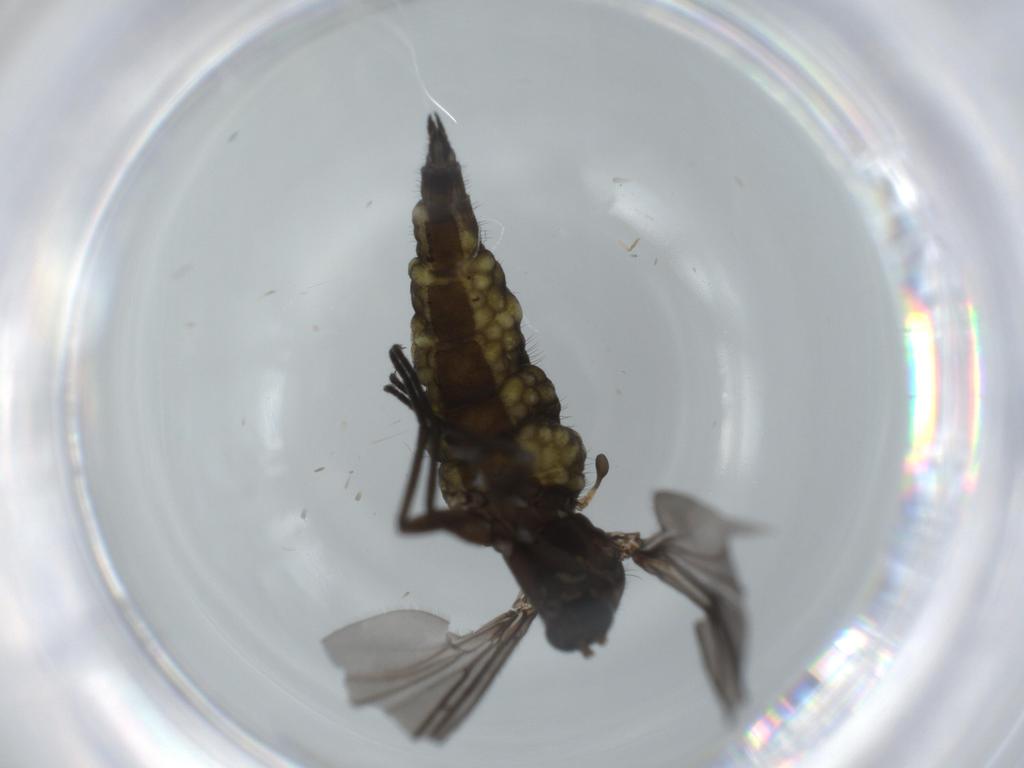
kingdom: Animalia
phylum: Arthropoda
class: Insecta
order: Diptera
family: Sciaridae
